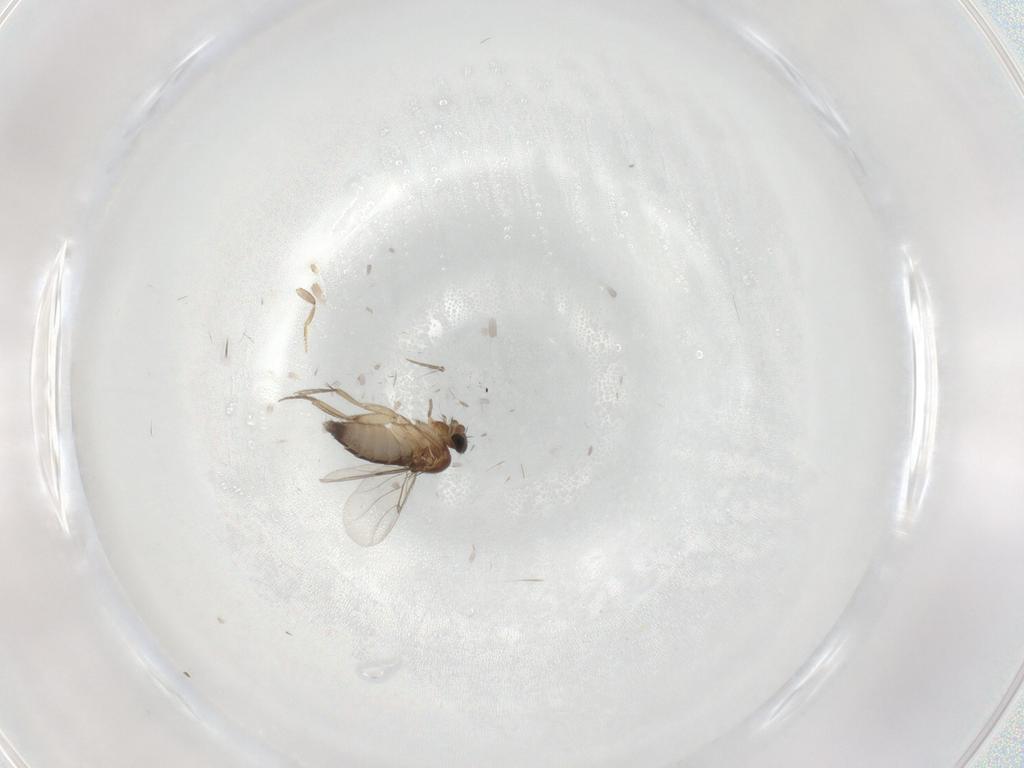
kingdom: Animalia
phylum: Arthropoda
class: Insecta
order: Diptera
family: Phoridae
